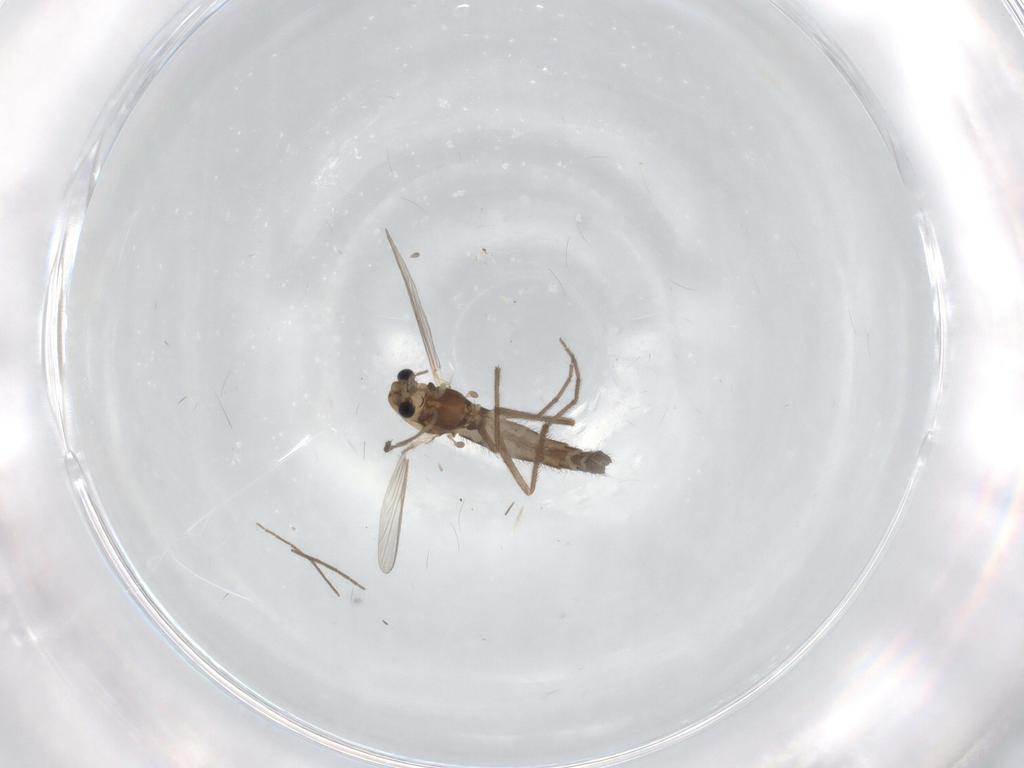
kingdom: Animalia
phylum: Arthropoda
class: Insecta
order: Diptera
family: Chironomidae
